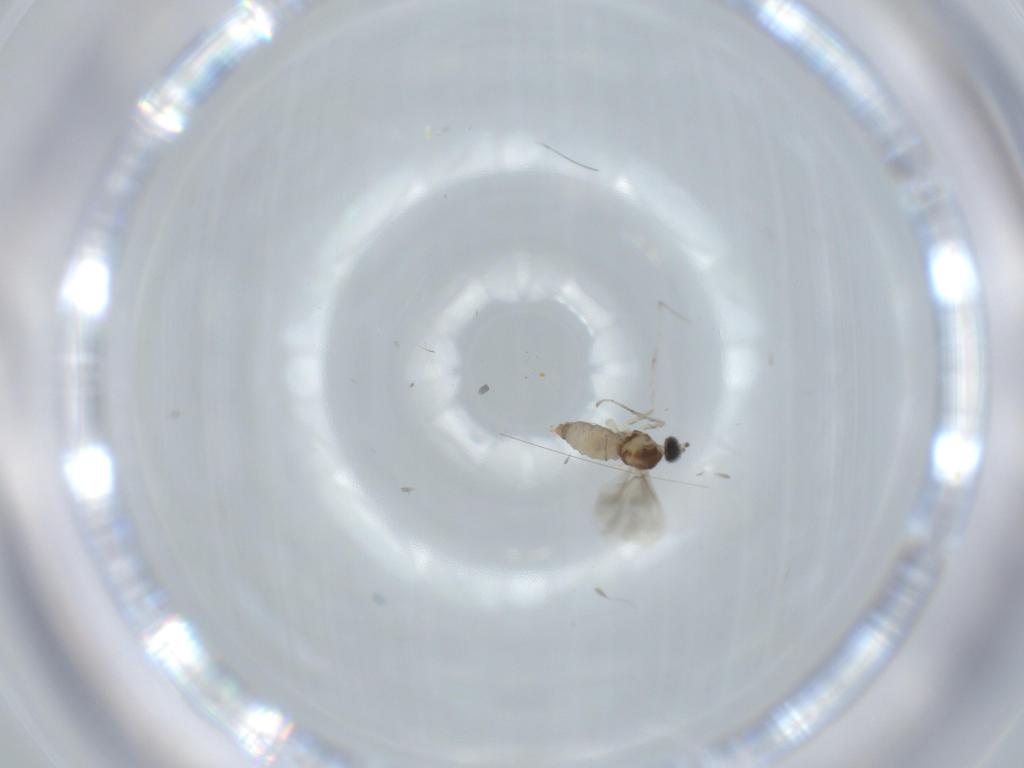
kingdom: Animalia
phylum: Arthropoda
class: Insecta
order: Diptera
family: Cecidomyiidae
